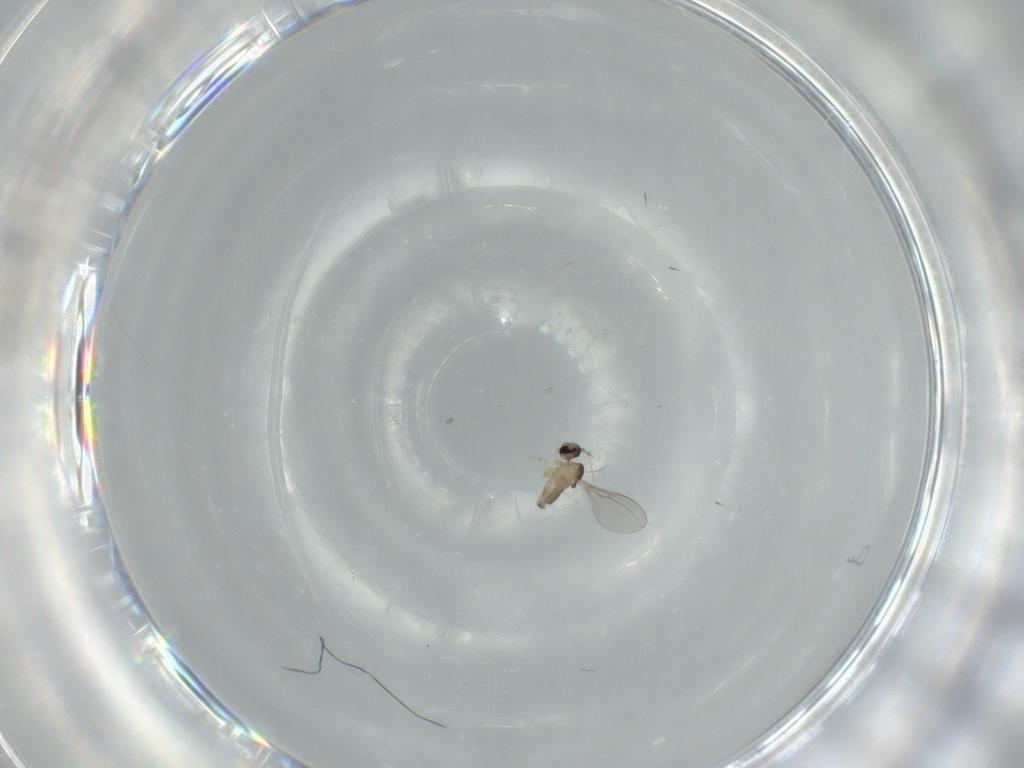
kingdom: Animalia
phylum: Arthropoda
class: Insecta
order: Diptera
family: Cecidomyiidae
